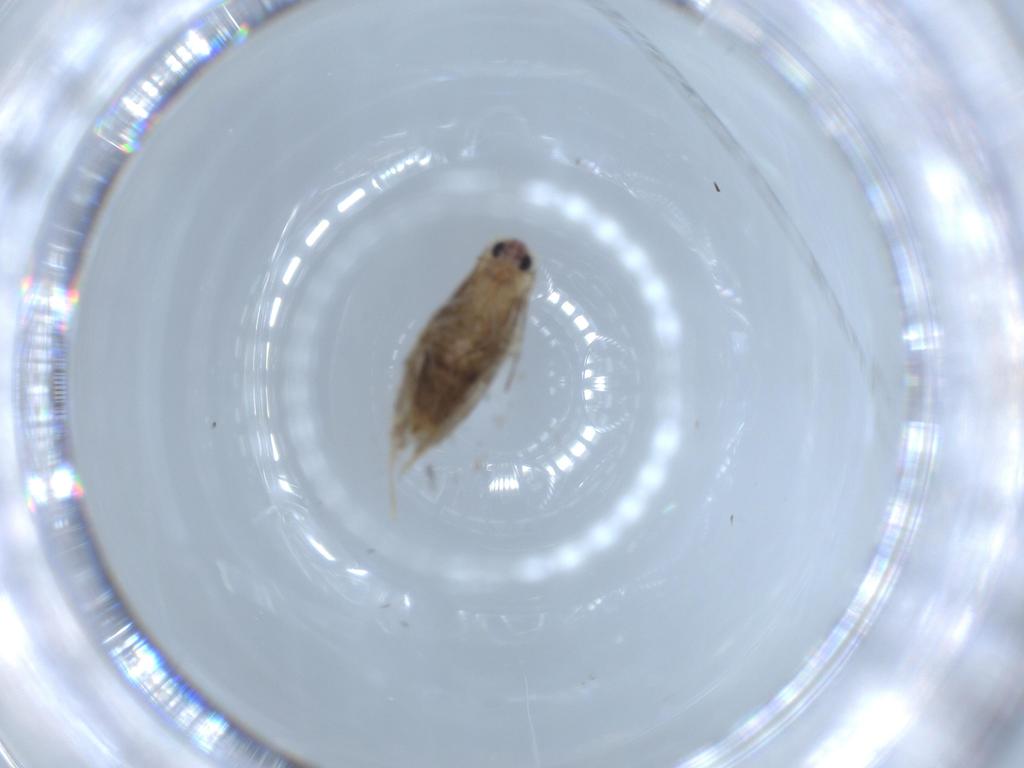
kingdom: Animalia
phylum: Arthropoda
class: Insecta
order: Lepidoptera
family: Tineidae
